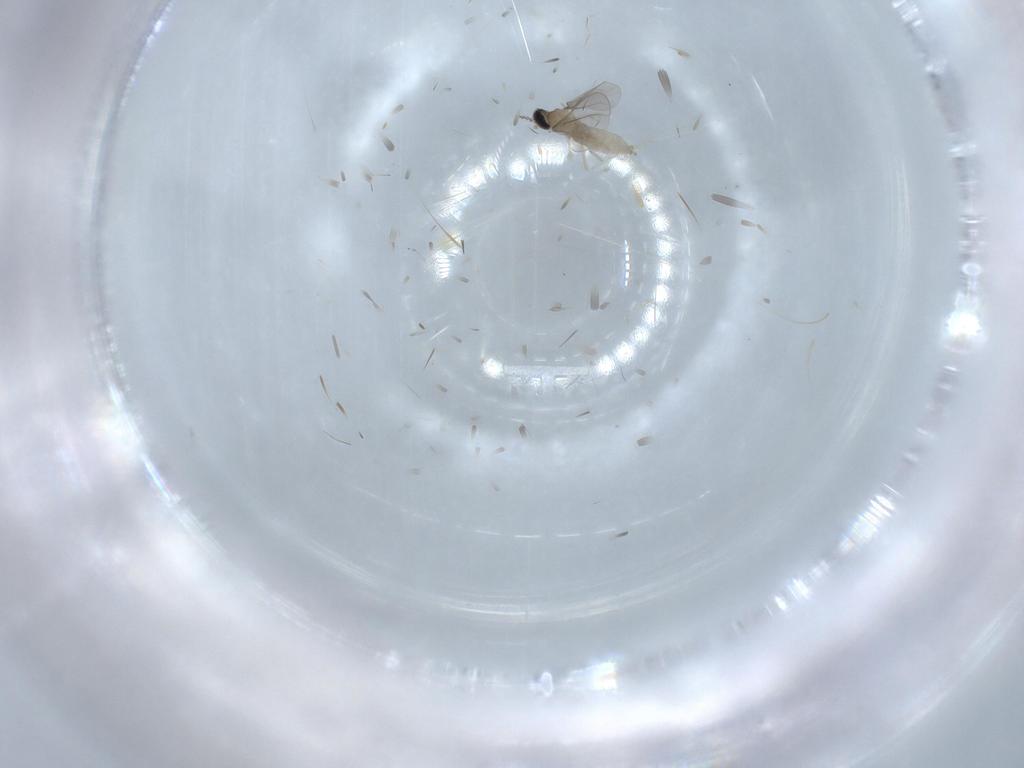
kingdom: Animalia
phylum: Arthropoda
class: Insecta
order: Diptera
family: Cecidomyiidae
